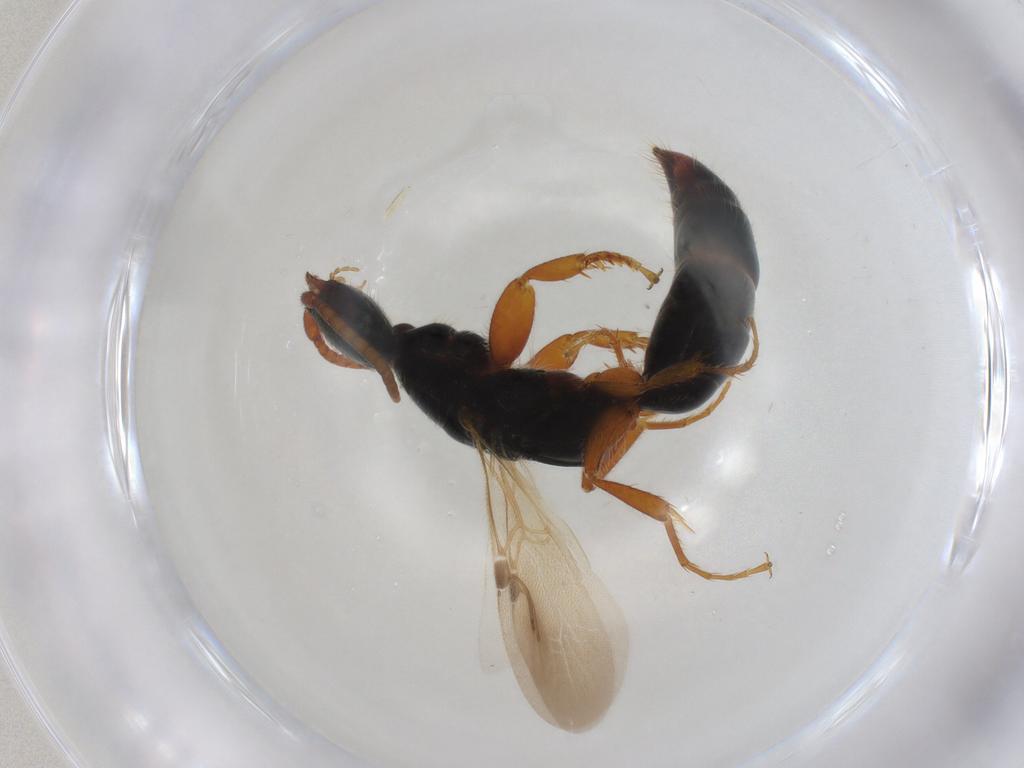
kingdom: Animalia
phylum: Arthropoda
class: Insecta
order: Hymenoptera
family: Bethylidae
